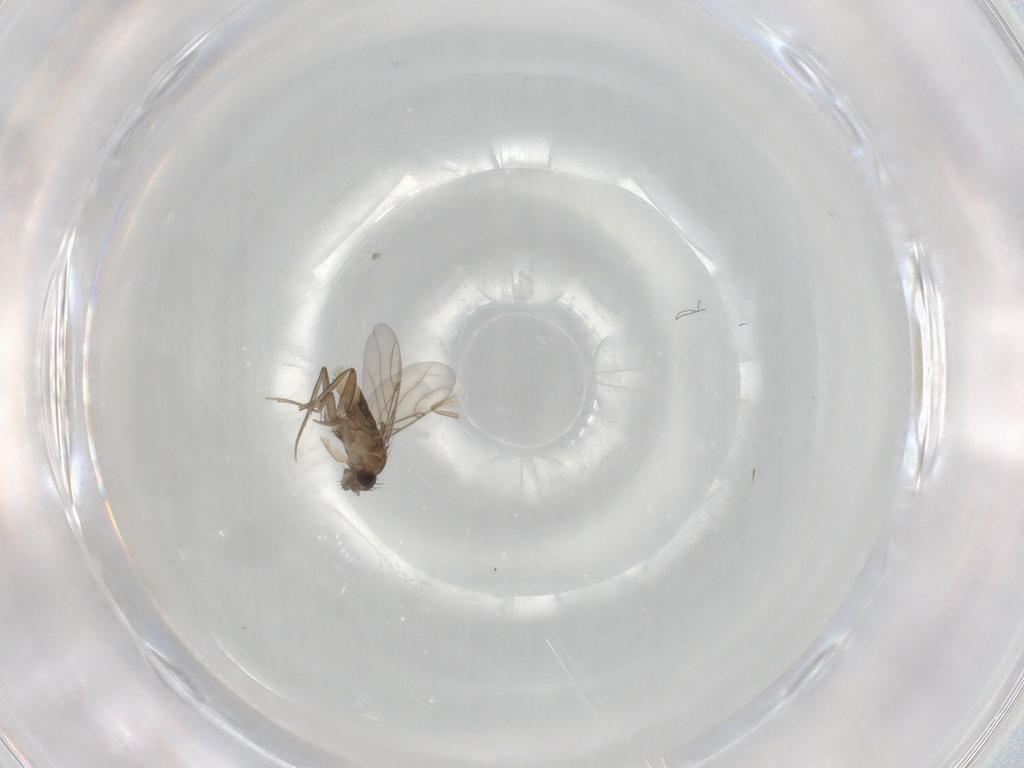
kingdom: Animalia
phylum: Arthropoda
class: Insecta
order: Diptera
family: Phoridae
